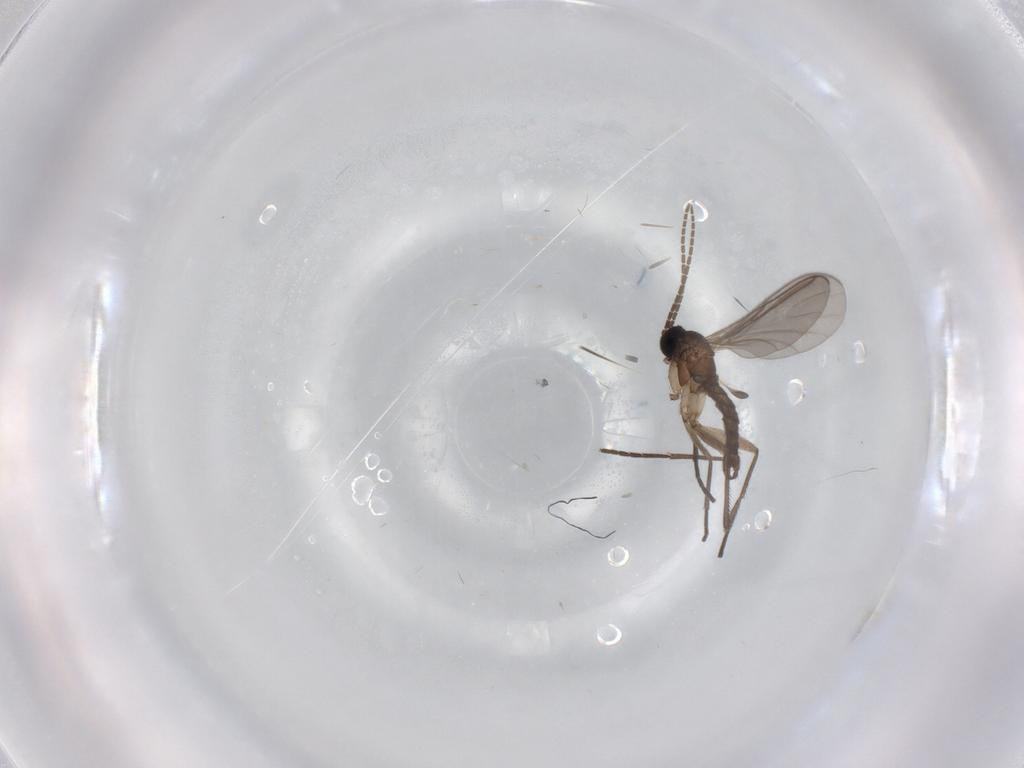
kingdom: Animalia
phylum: Arthropoda
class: Insecta
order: Diptera
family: Sciaridae
